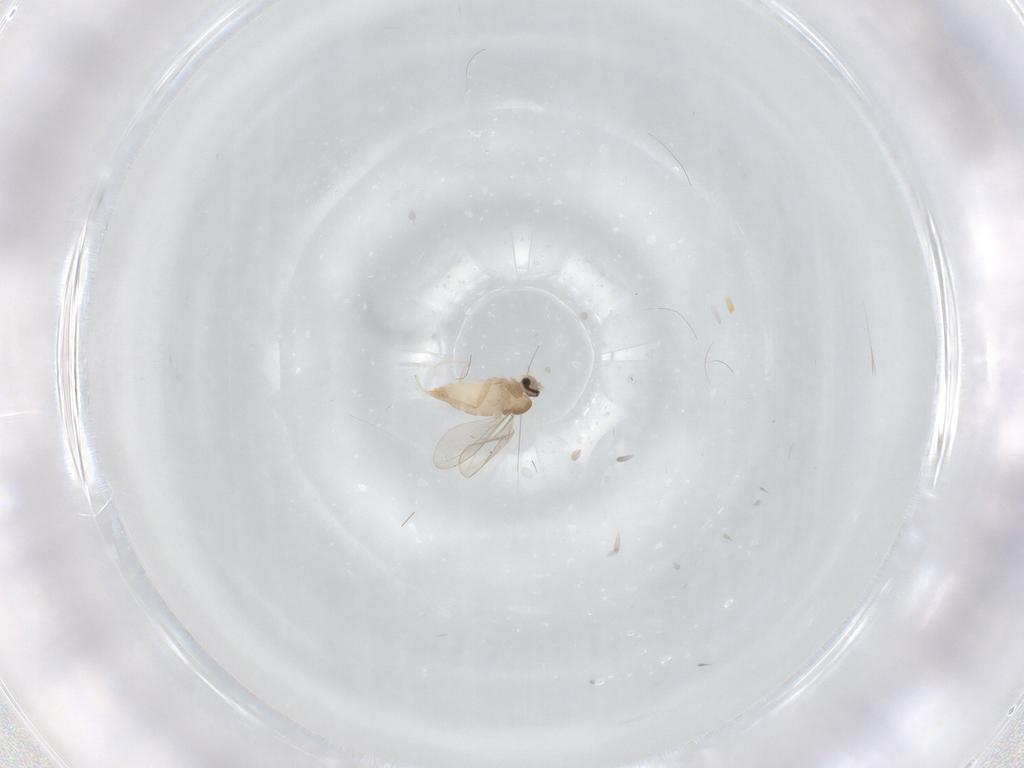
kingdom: Animalia
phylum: Arthropoda
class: Insecta
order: Diptera
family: Cecidomyiidae
